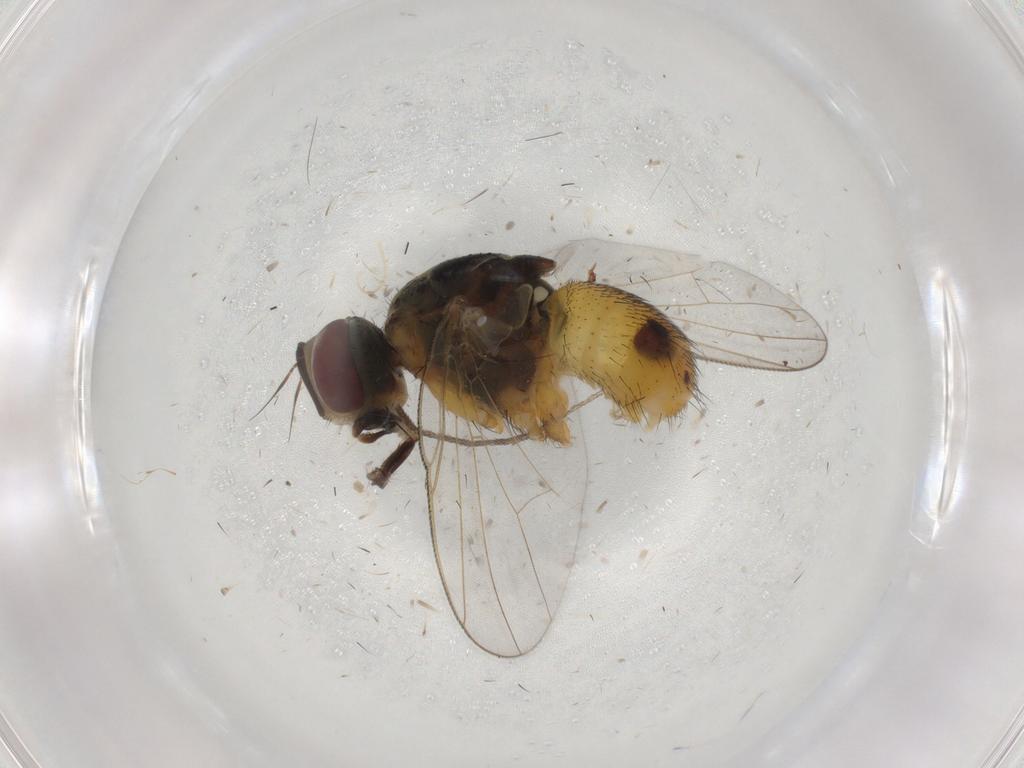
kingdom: Animalia
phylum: Arthropoda
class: Insecta
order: Diptera
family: Muscidae
